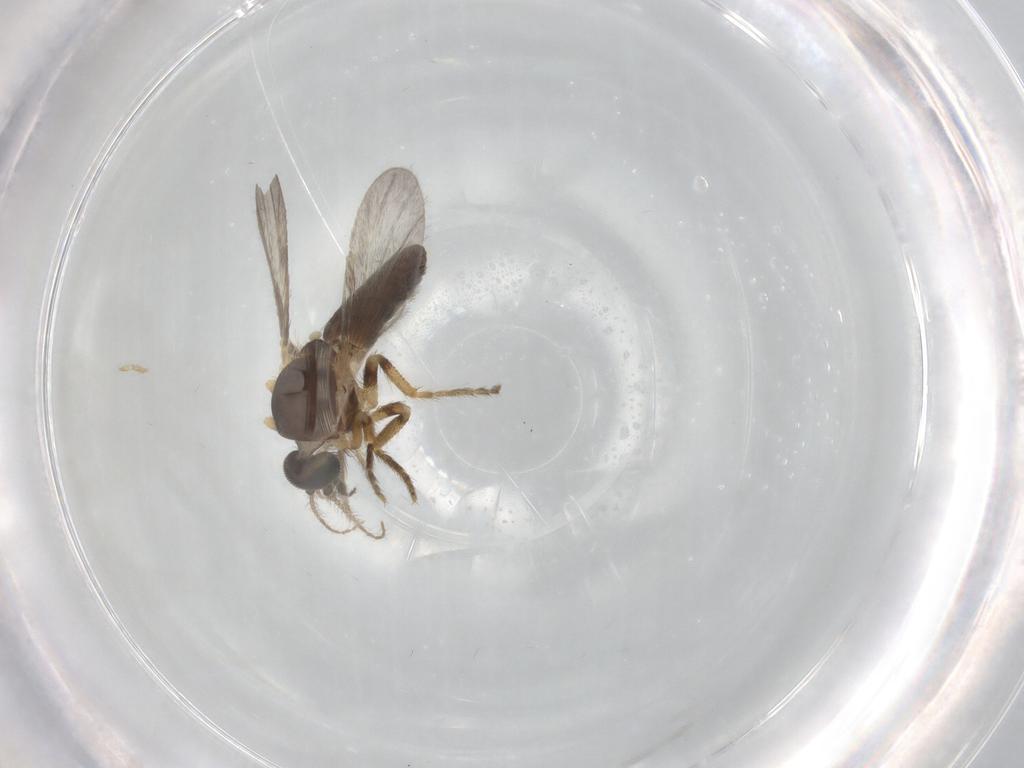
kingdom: Animalia
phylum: Arthropoda
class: Insecta
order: Diptera
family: Ceratopogonidae
